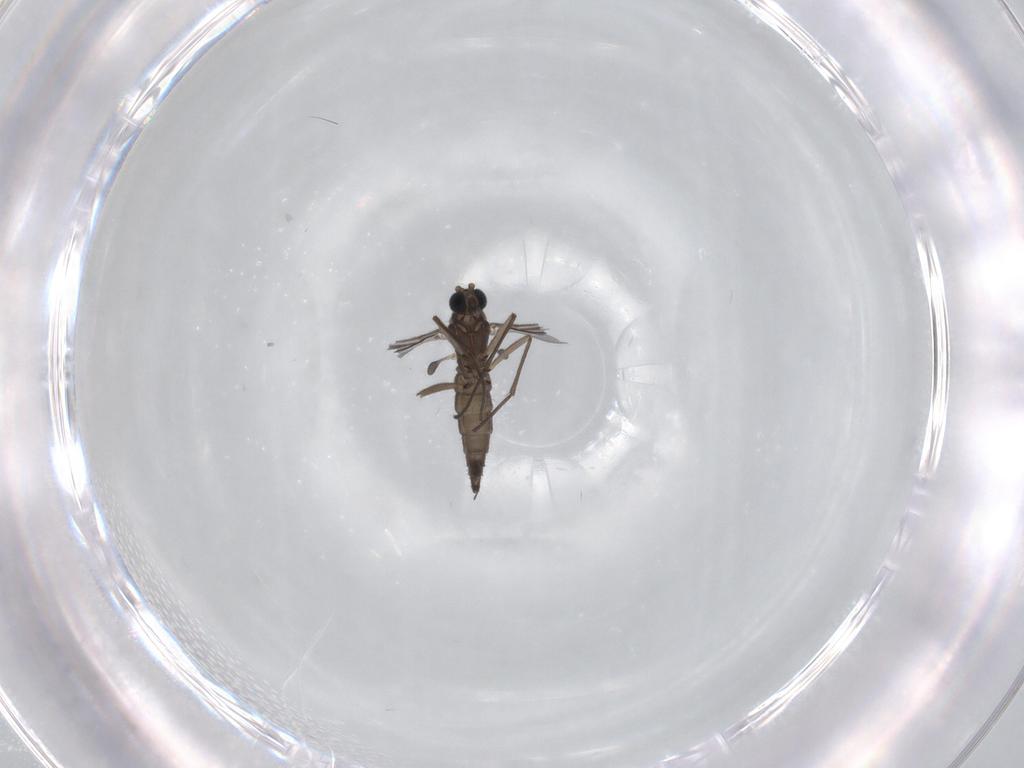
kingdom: Animalia
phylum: Arthropoda
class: Insecta
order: Diptera
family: Sciaridae
